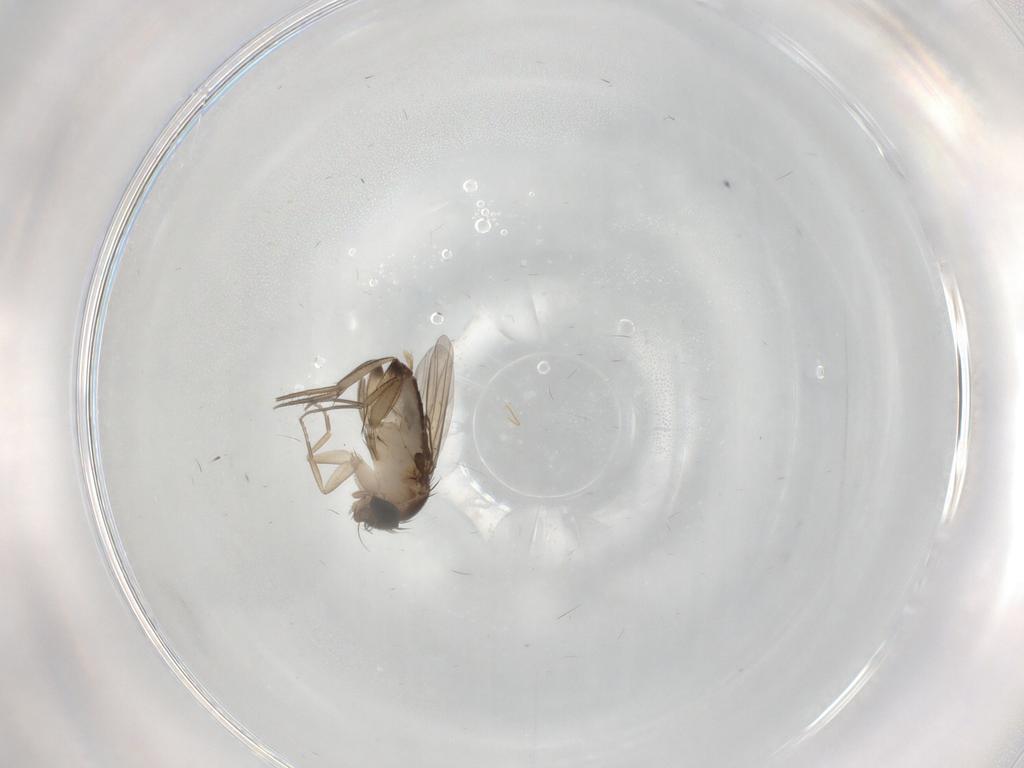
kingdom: Animalia
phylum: Arthropoda
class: Insecta
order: Diptera
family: Phoridae
